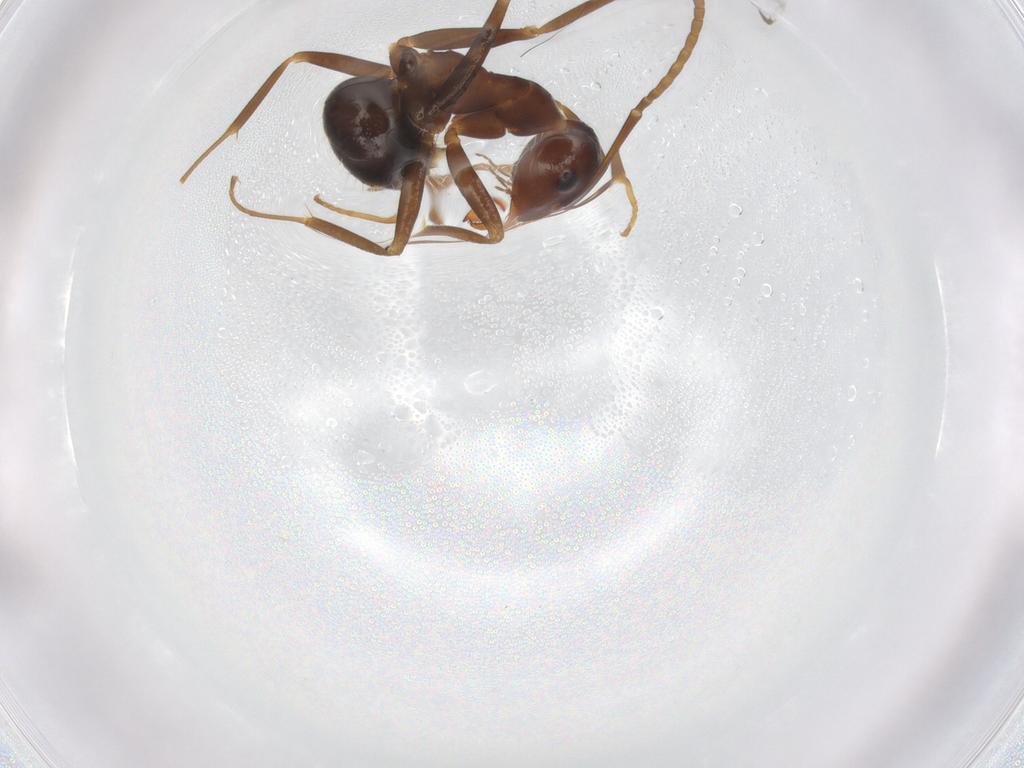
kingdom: Animalia
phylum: Arthropoda
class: Insecta
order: Hymenoptera
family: Formicidae
